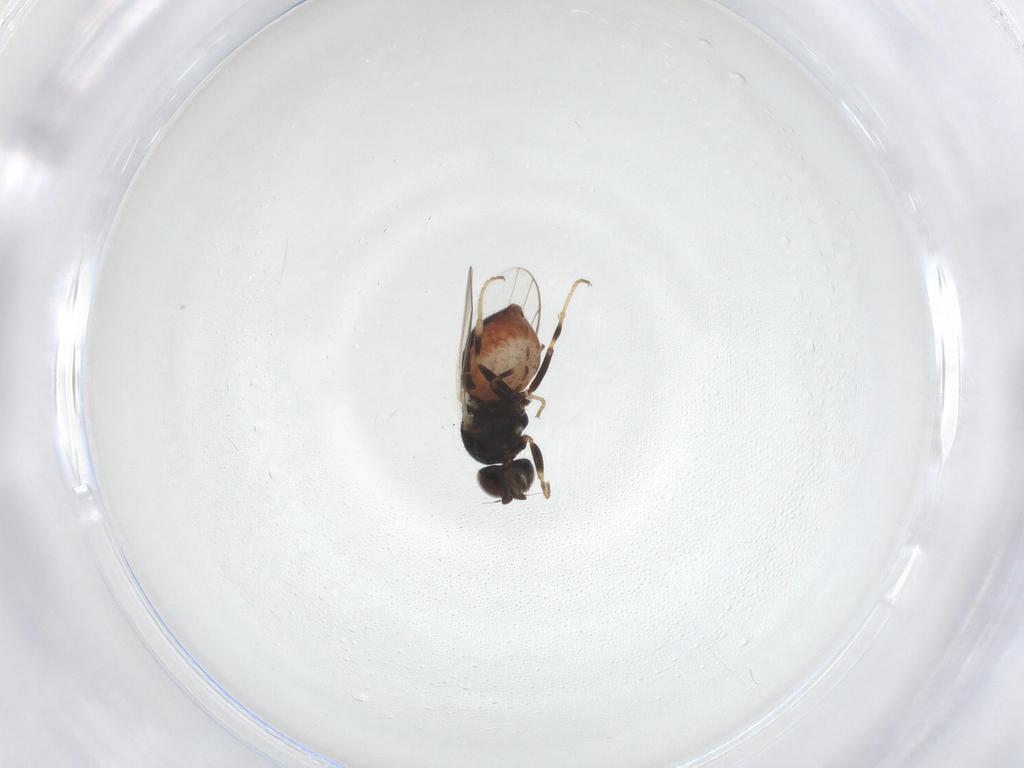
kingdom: Animalia
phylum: Arthropoda
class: Insecta
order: Diptera
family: Chloropidae
